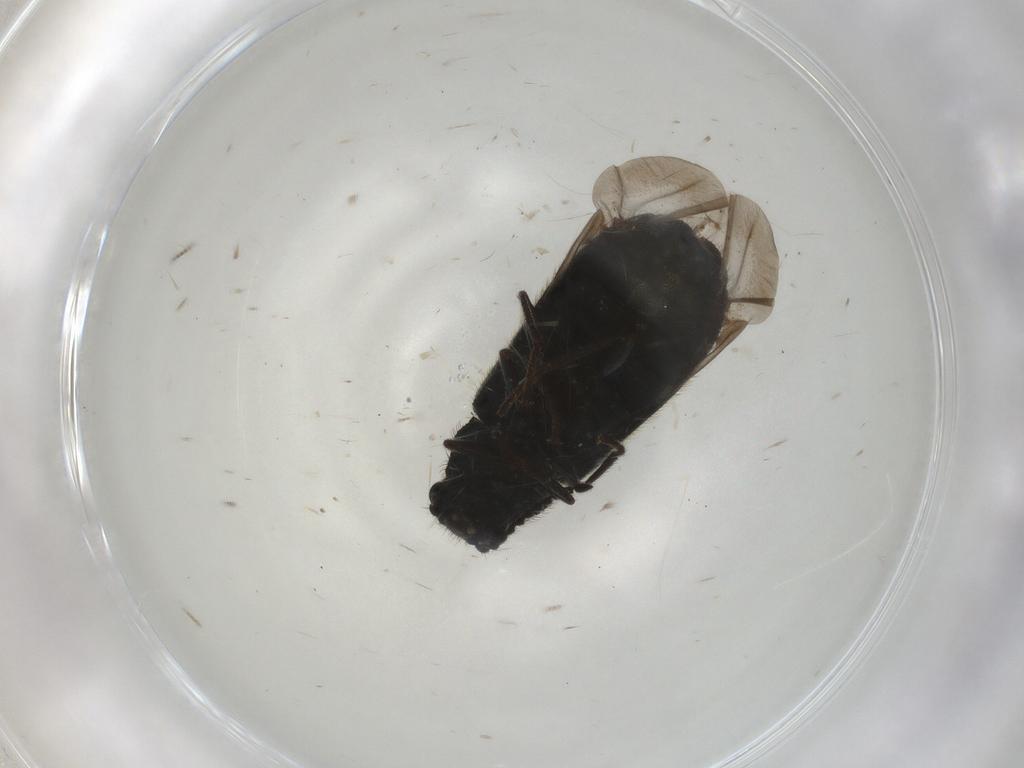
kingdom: Animalia
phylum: Arthropoda
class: Insecta
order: Coleoptera
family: Melyridae
